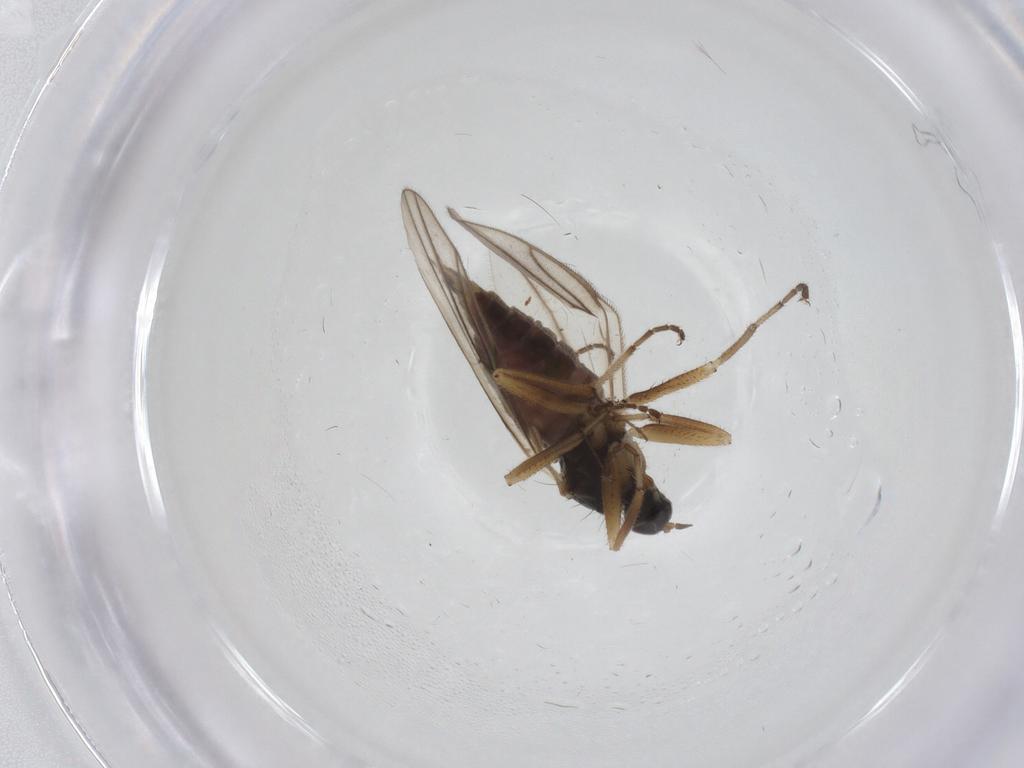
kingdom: Animalia
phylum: Arthropoda
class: Insecta
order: Diptera
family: Hybotidae
